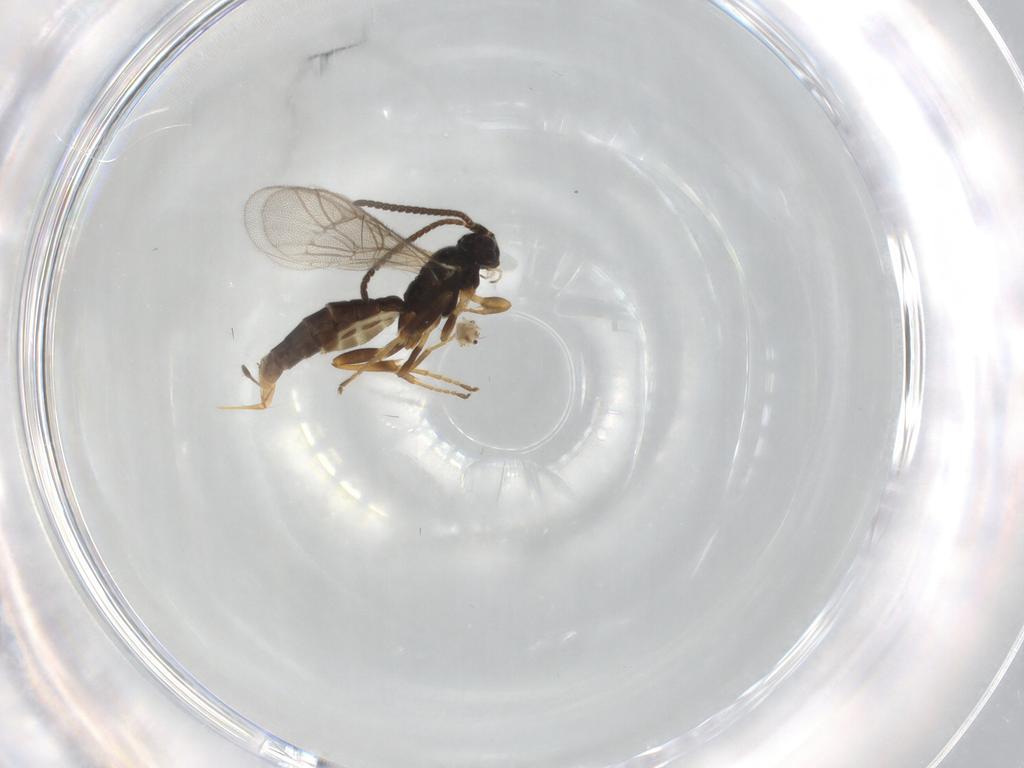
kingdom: Animalia
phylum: Arthropoda
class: Insecta
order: Hymenoptera
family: Ichneumonidae
